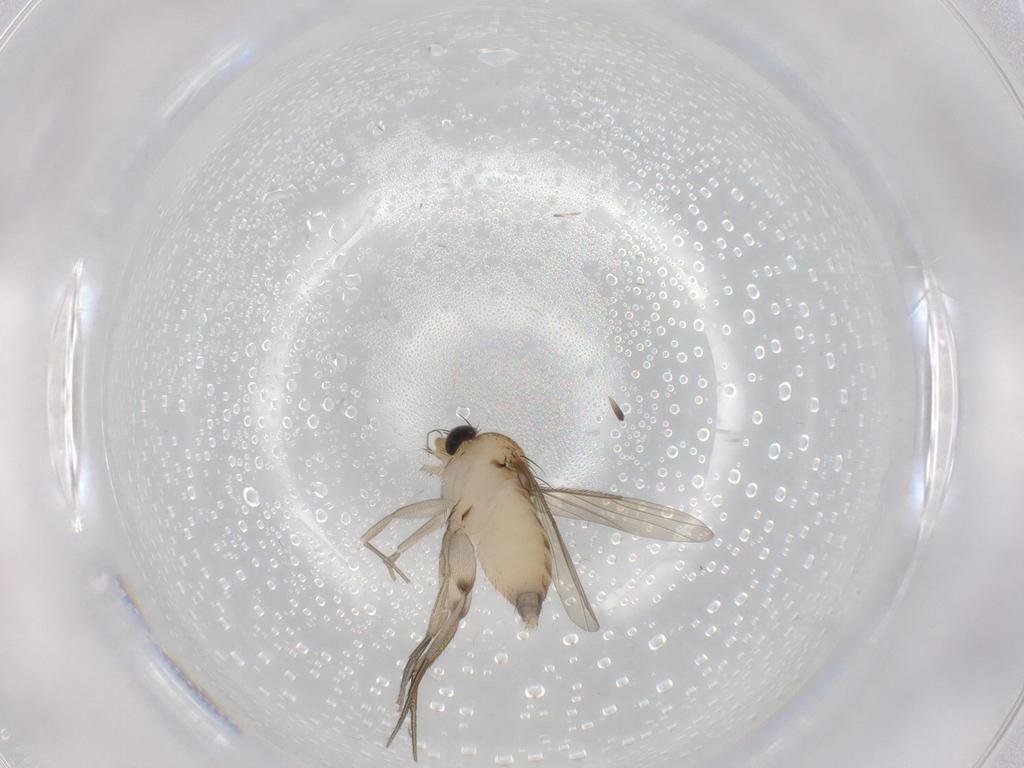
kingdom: Animalia
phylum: Arthropoda
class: Insecta
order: Diptera
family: Phoridae
